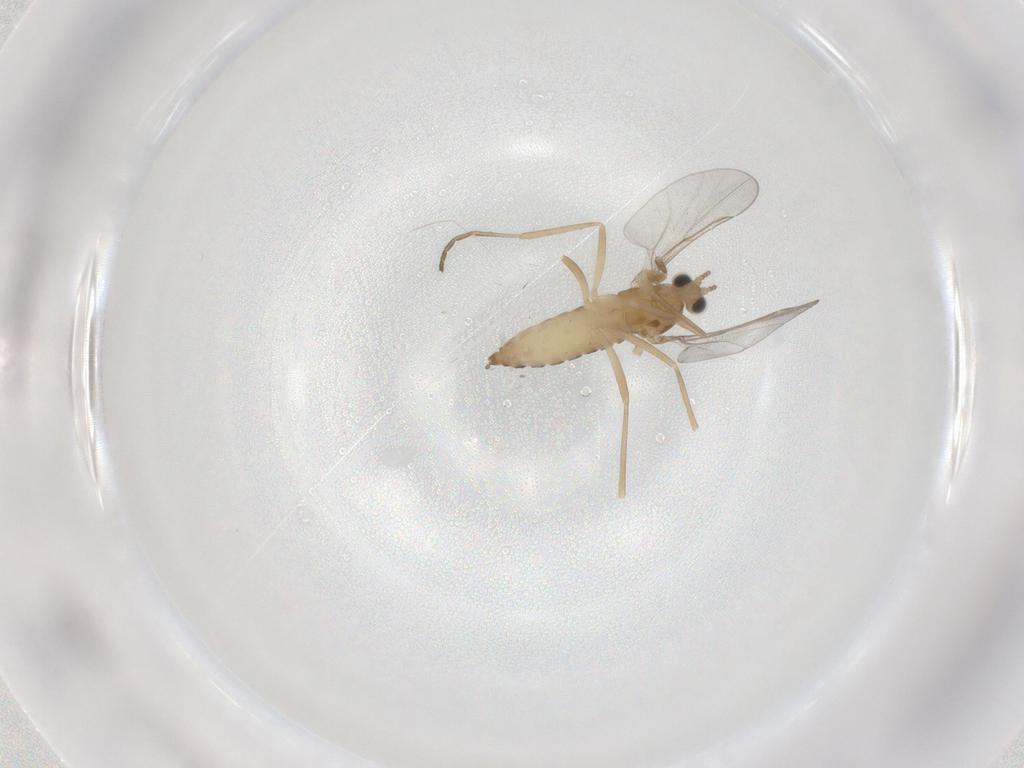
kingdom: Animalia
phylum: Arthropoda
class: Insecta
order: Diptera
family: Cecidomyiidae
